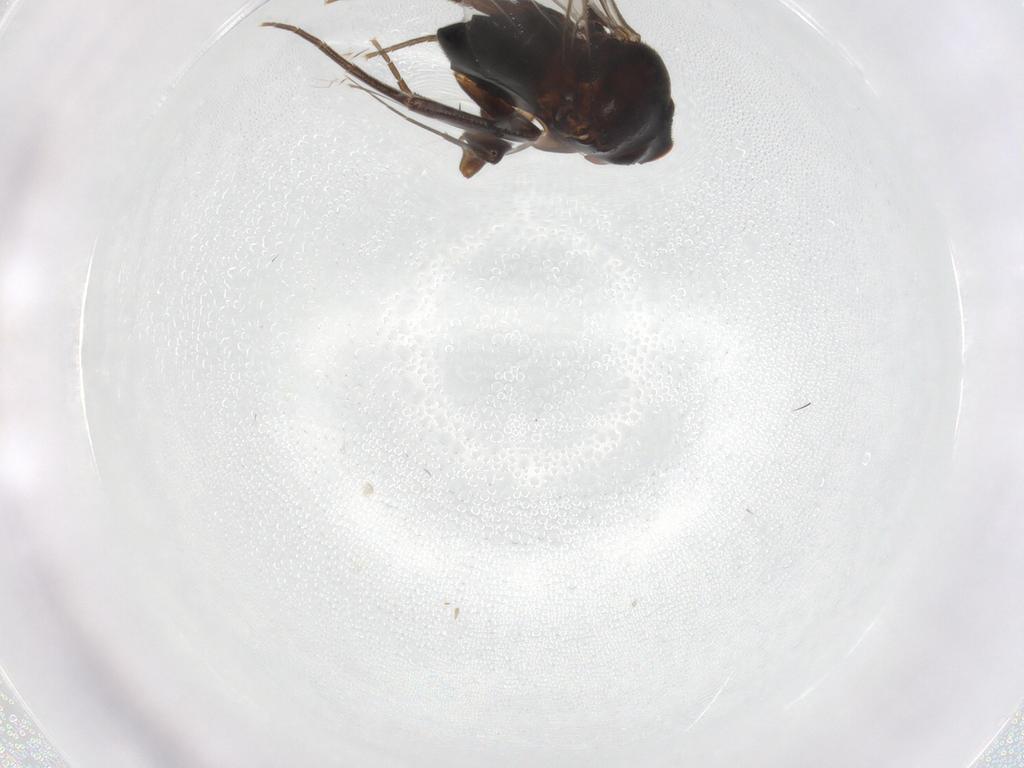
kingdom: Animalia
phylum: Arthropoda
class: Insecta
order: Diptera
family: Phoridae
